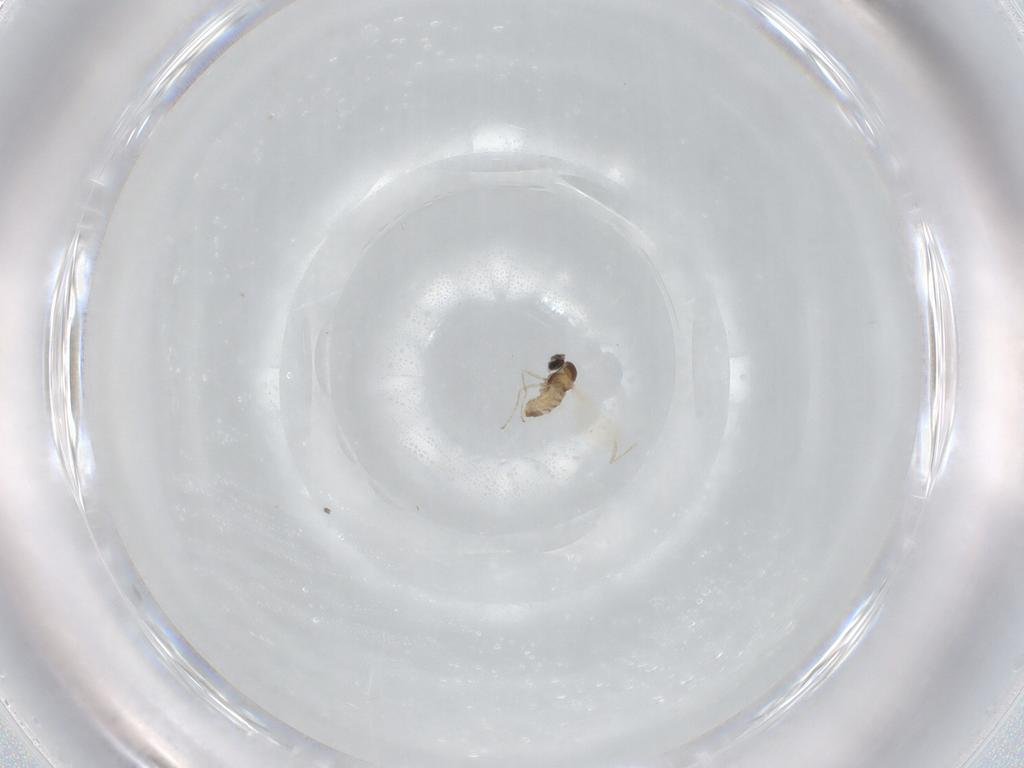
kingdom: Animalia
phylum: Arthropoda
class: Insecta
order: Diptera
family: Cecidomyiidae
